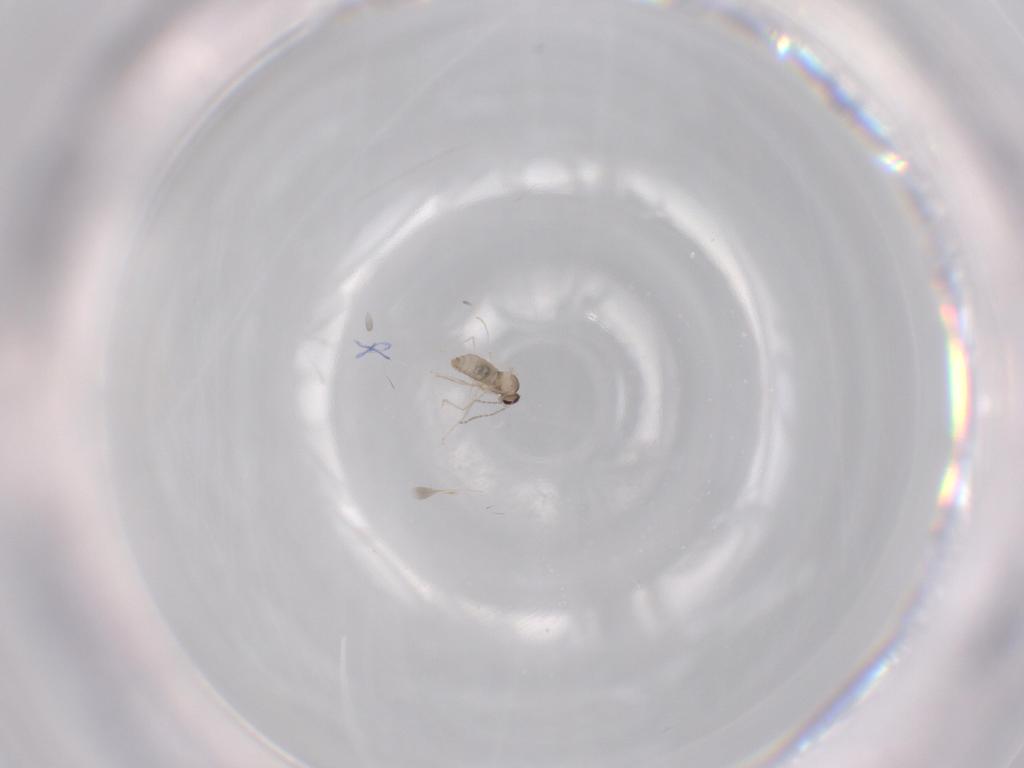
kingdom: Animalia
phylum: Arthropoda
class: Insecta
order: Diptera
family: Cecidomyiidae
